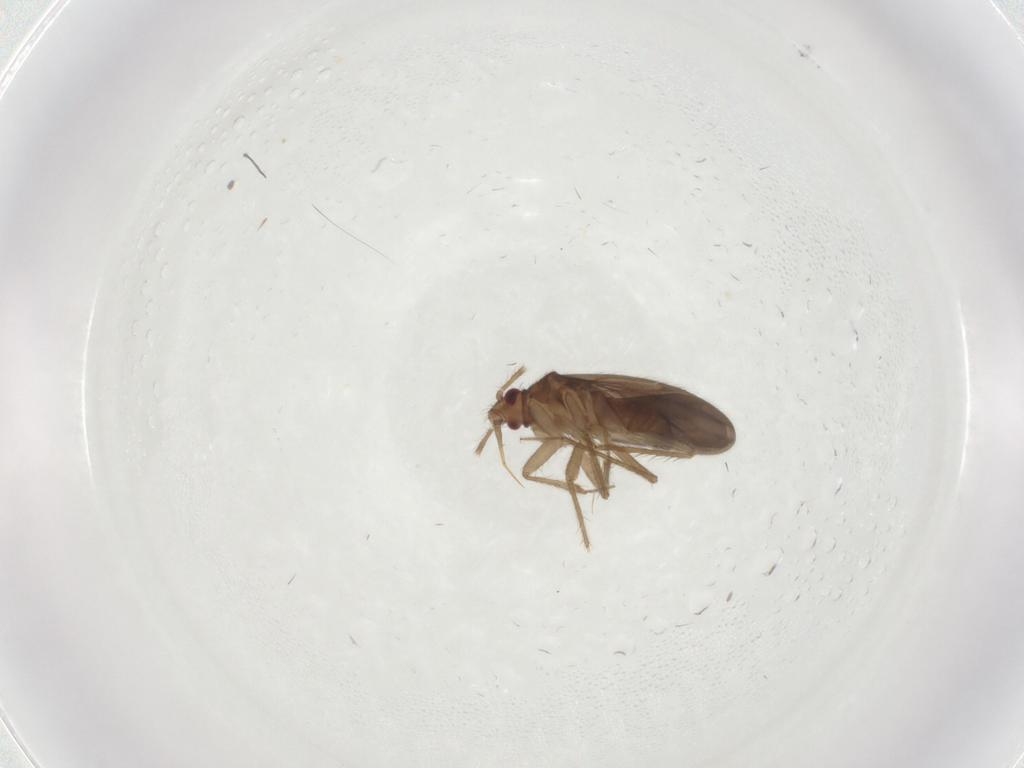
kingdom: Animalia
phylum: Arthropoda
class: Insecta
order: Hemiptera
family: Ceratocombidae
